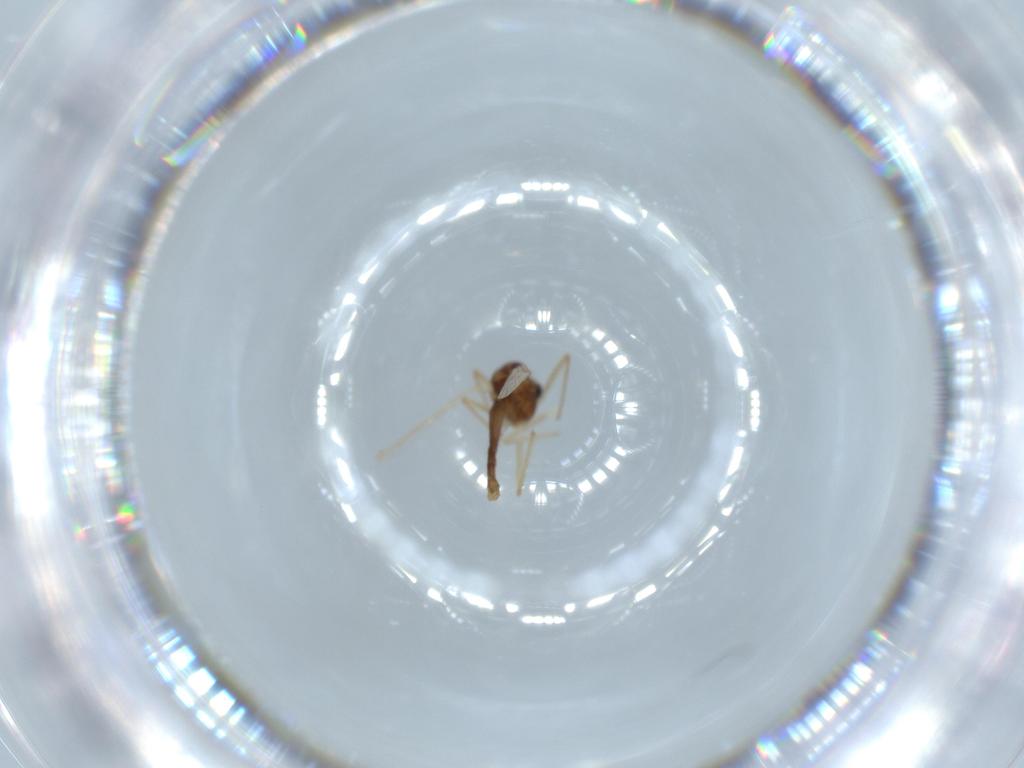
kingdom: Animalia
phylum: Arthropoda
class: Insecta
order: Diptera
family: Chironomidae
